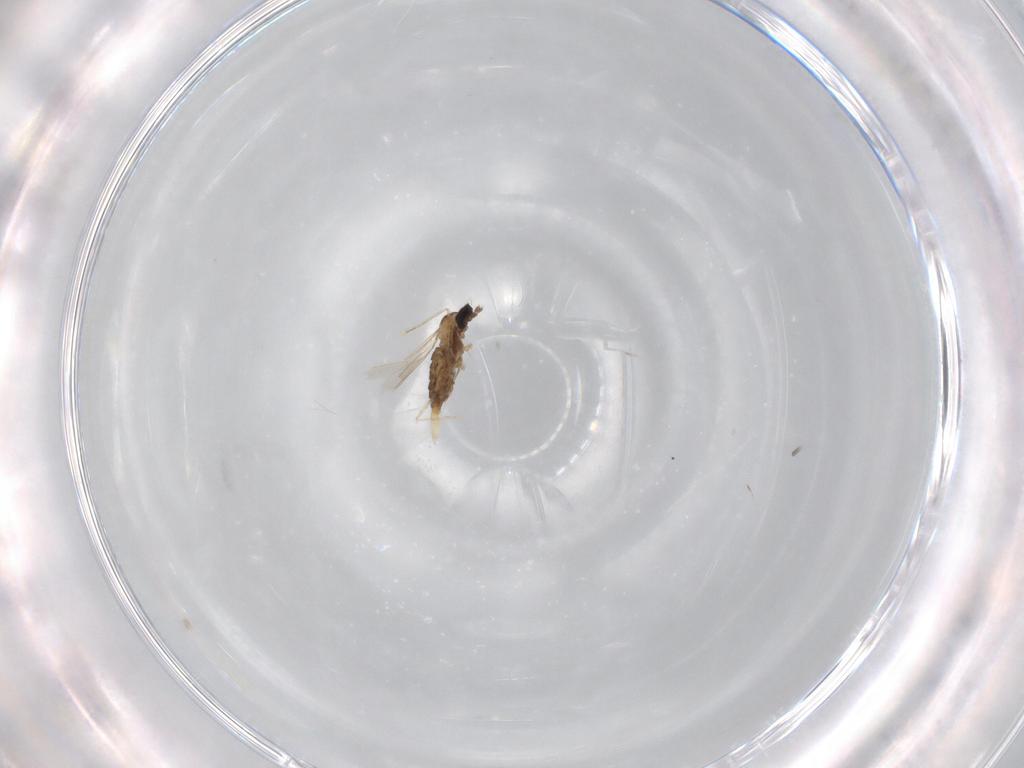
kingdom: Animalia
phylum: Arthropoda
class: Insecta
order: Diptera
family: Cecidomyiidae
